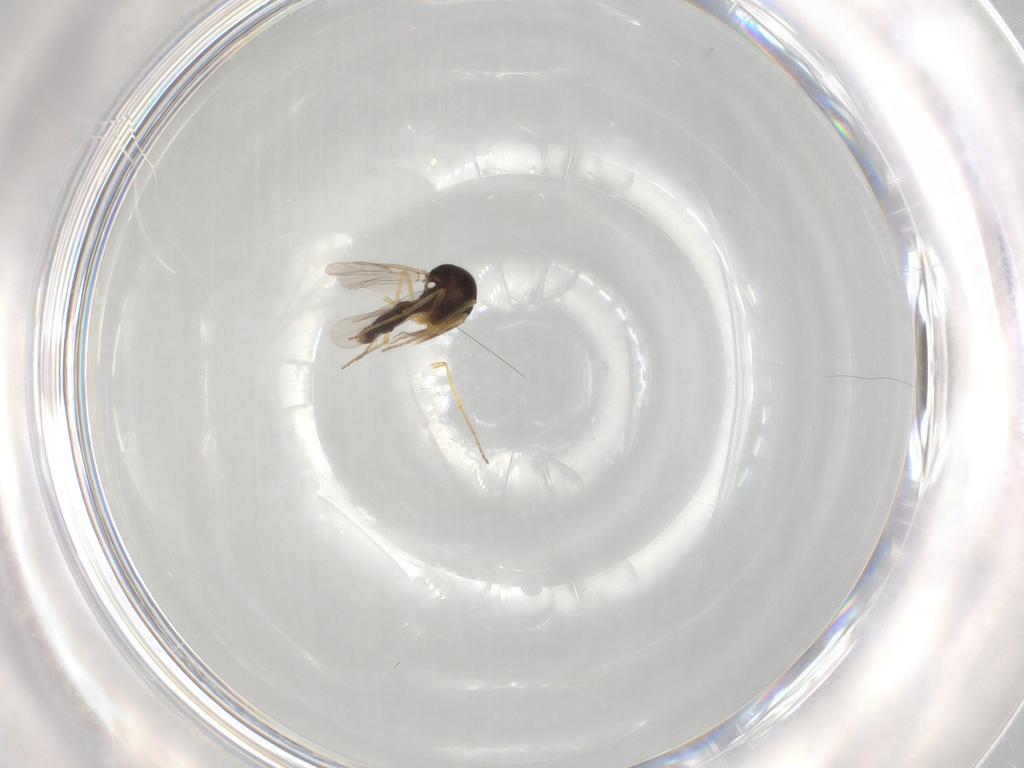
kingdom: Animalia
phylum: Arthropoda
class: Insecta
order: Diptera
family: Ceratopogonidae
